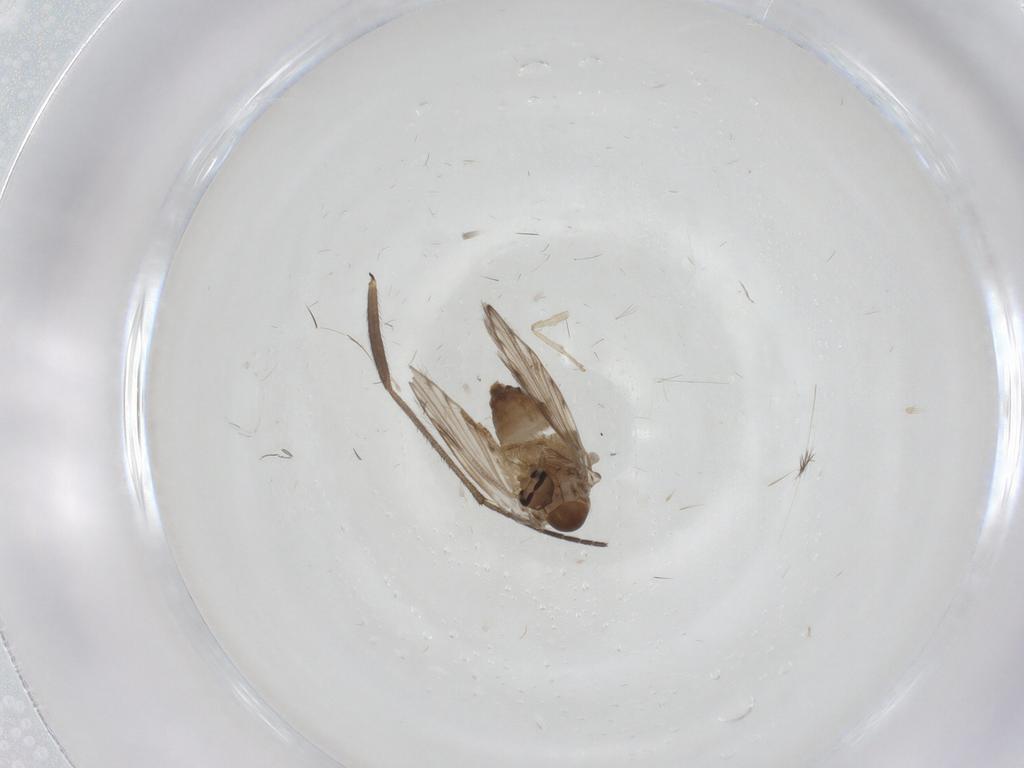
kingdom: Animalia
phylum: Arthropoda
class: Insecta
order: Diptera
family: Psychodidae
